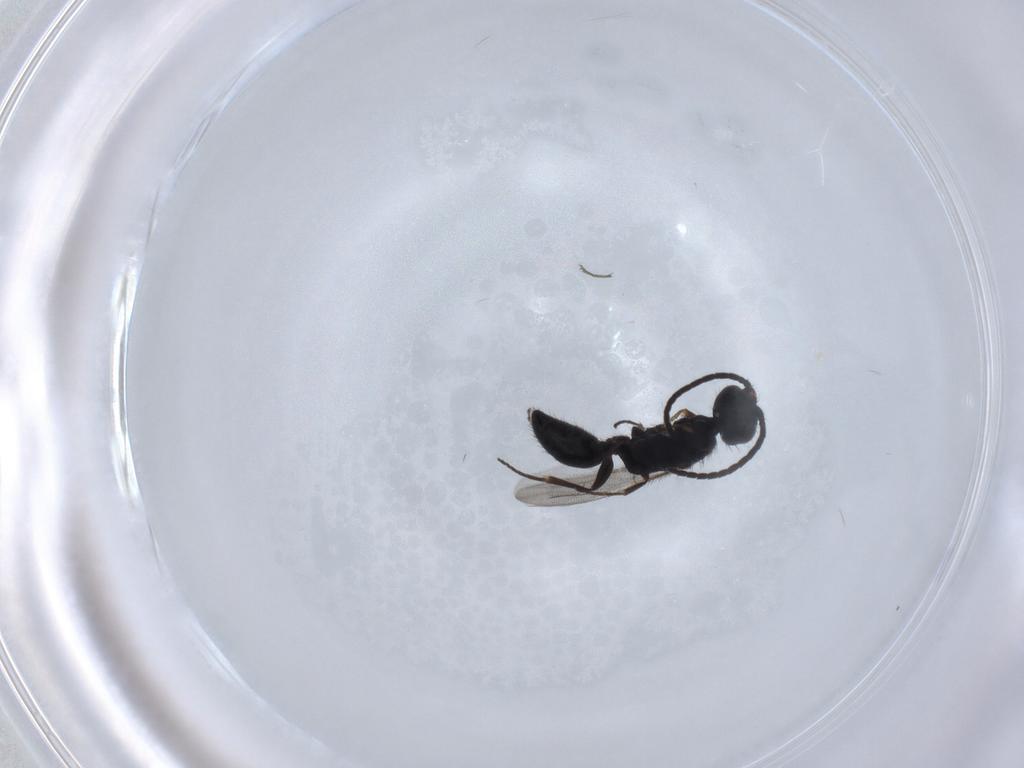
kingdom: Animalia
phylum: Arthropoda
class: Insecta
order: Hymenoptera
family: Bethylidae
